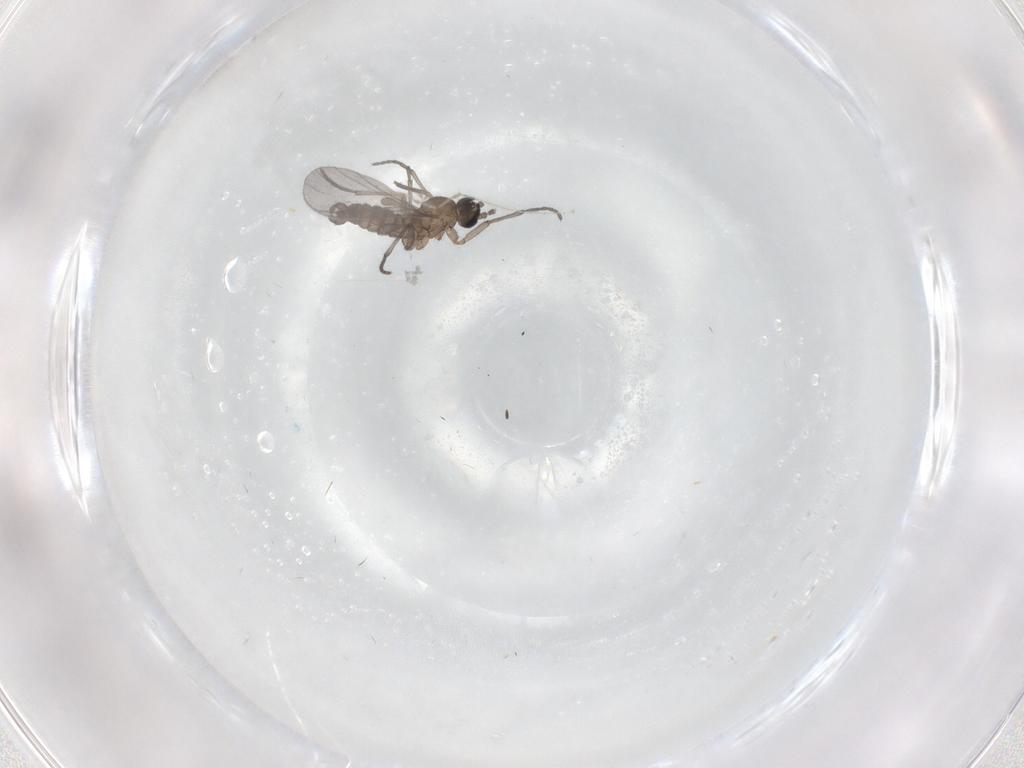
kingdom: Animalia
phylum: Arthropoda
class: Insecta
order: Diptera
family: Sciaridae
